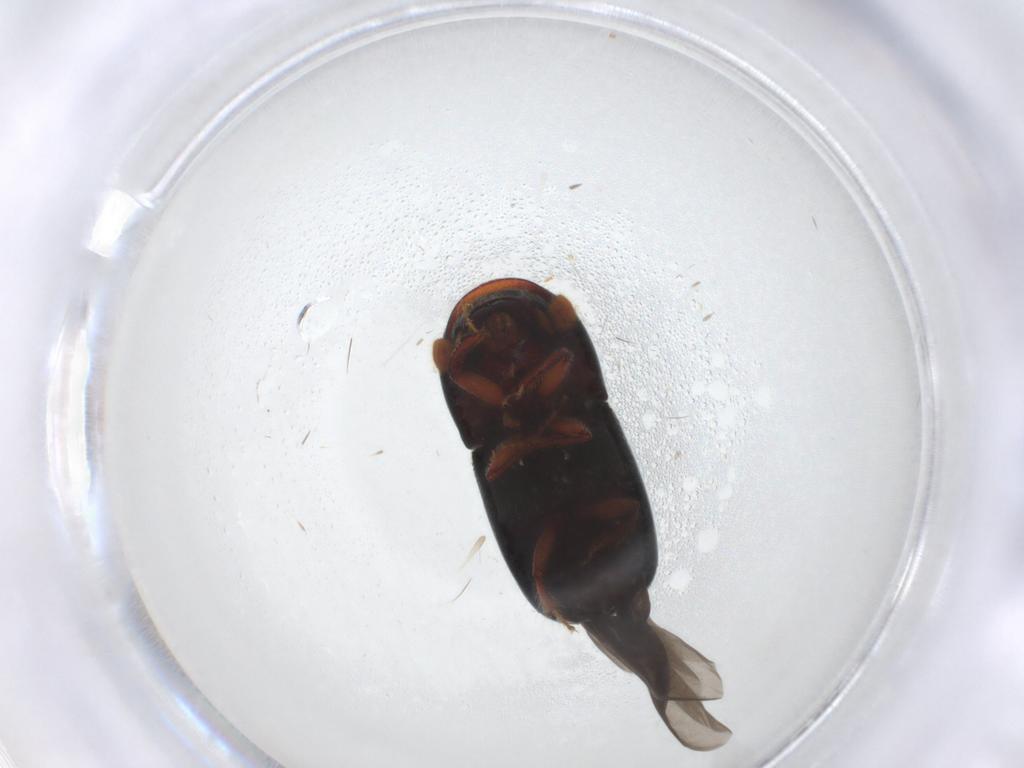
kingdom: Animalia
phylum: Arthropoda
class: Insecta
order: Coleoptera
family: Curculionidae
